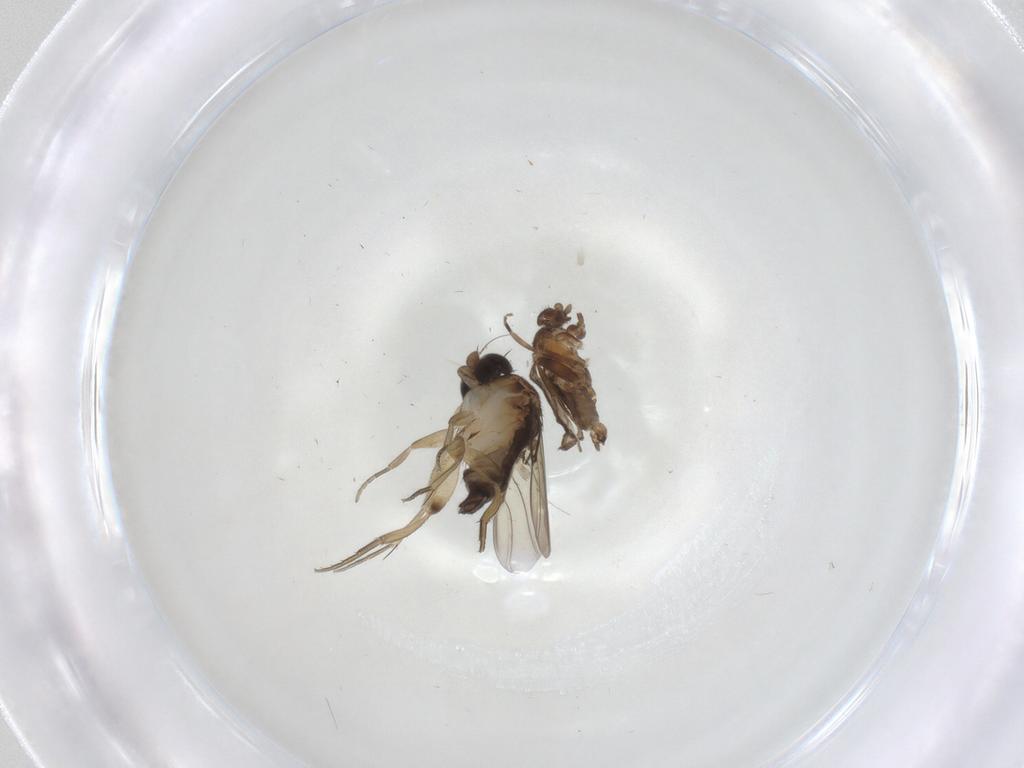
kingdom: Animalia
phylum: Arthropoda
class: Insecta
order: Diptera
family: Phoridae
